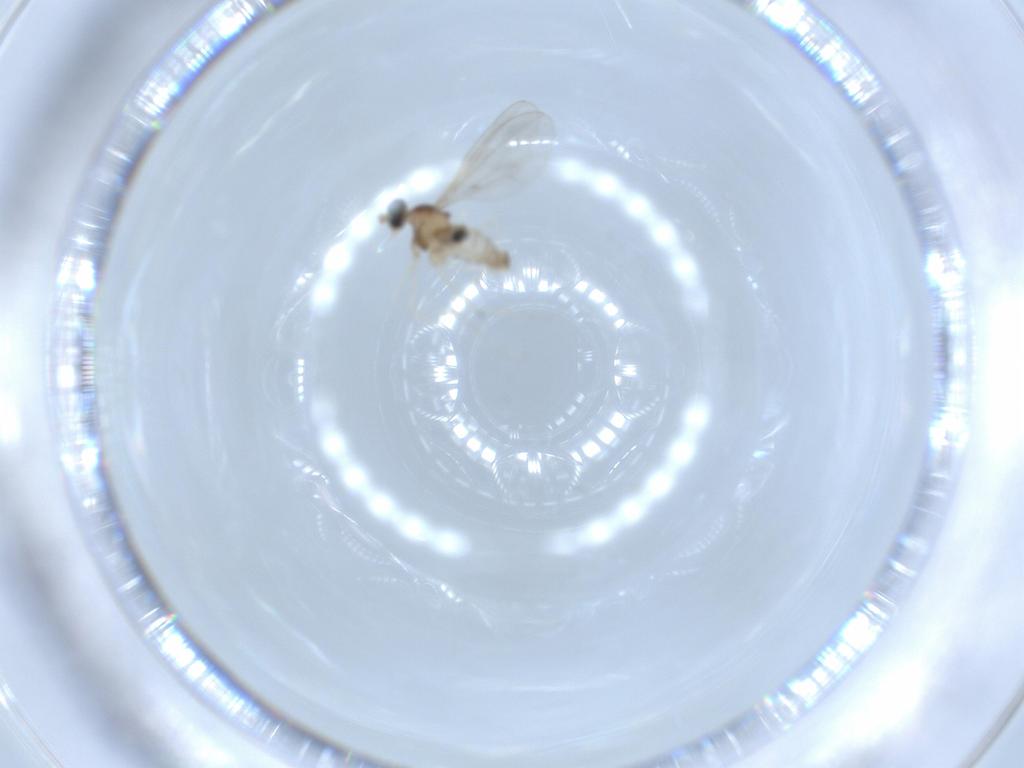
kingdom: Animalia
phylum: Arthropoda
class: Insecta
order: Diptera
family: Cecidomyiidae
